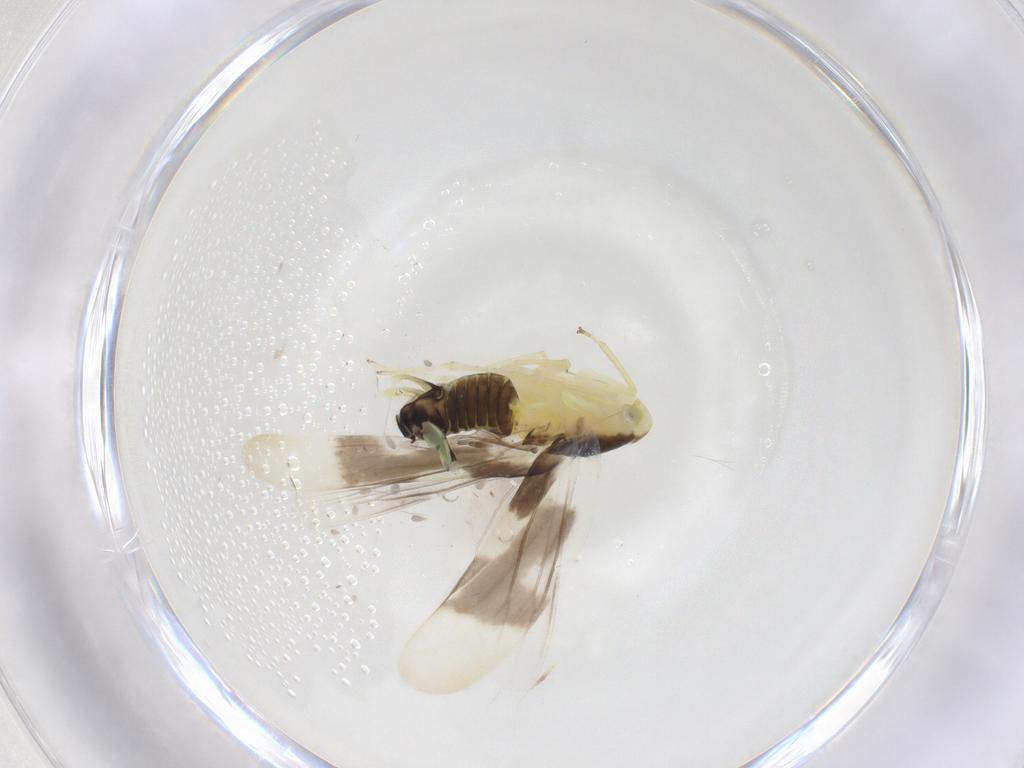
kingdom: Animalia
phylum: Arthropoda
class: Insecta
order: Hemiptera
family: Cicadellidae
